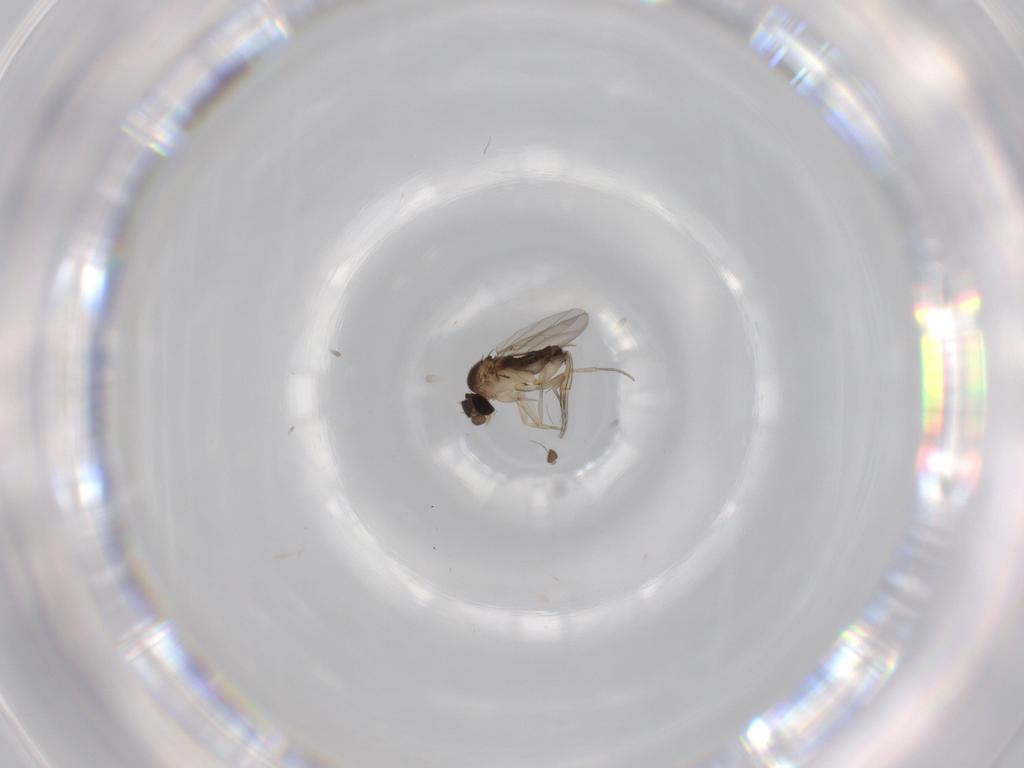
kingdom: Animalia
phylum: Arthropoda
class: Insecta
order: Diptera
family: Phoridae
